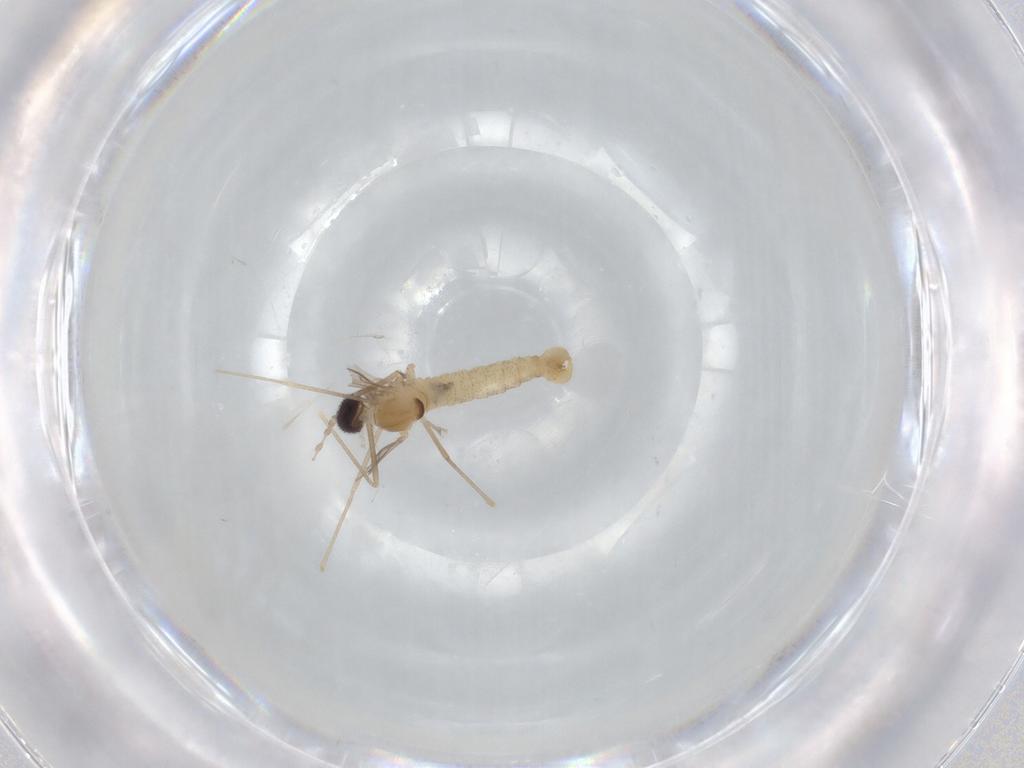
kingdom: Animalia
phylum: Arthropoda
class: Insecta
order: Diptera
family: Cecidomyiidae
